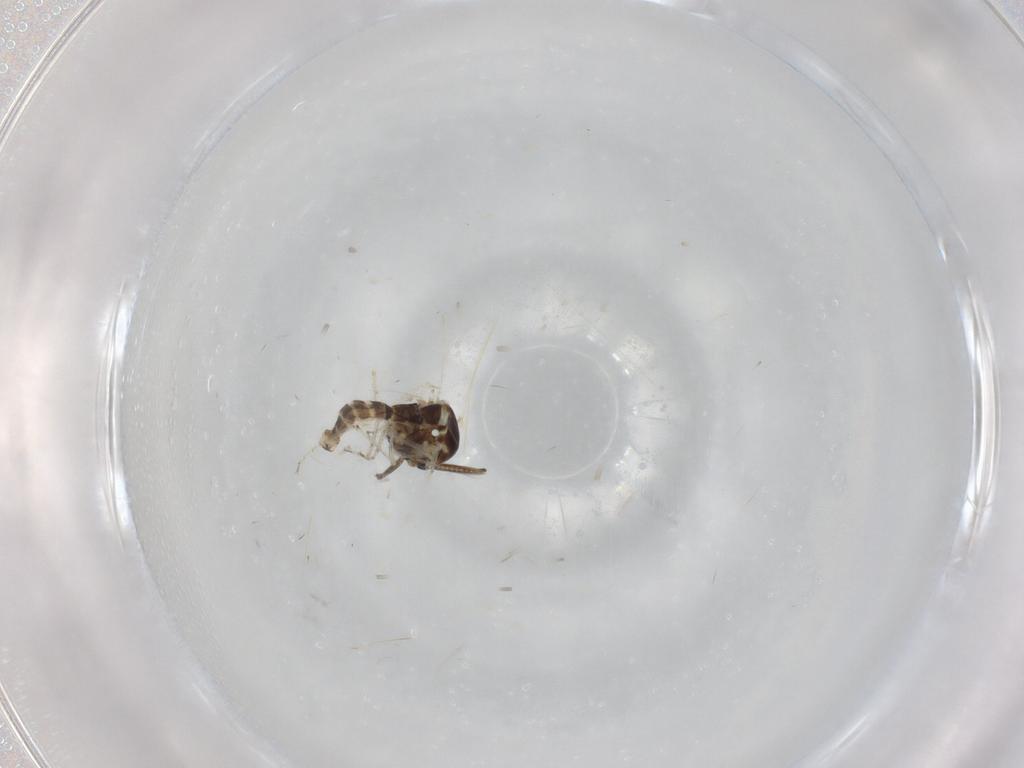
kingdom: Animalia
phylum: Arthropoda
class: Insecta
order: Diptera
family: Ceratopogonidae
